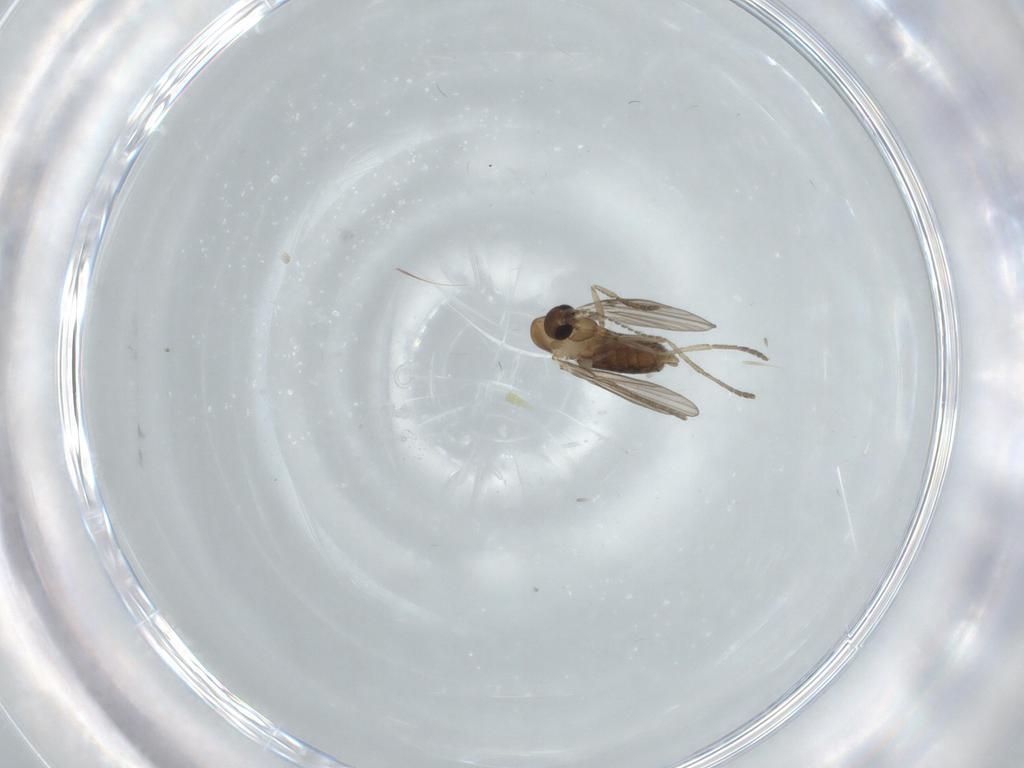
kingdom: Animalia
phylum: Arthropoda
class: Insecta
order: Diptera
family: Psychodidae
